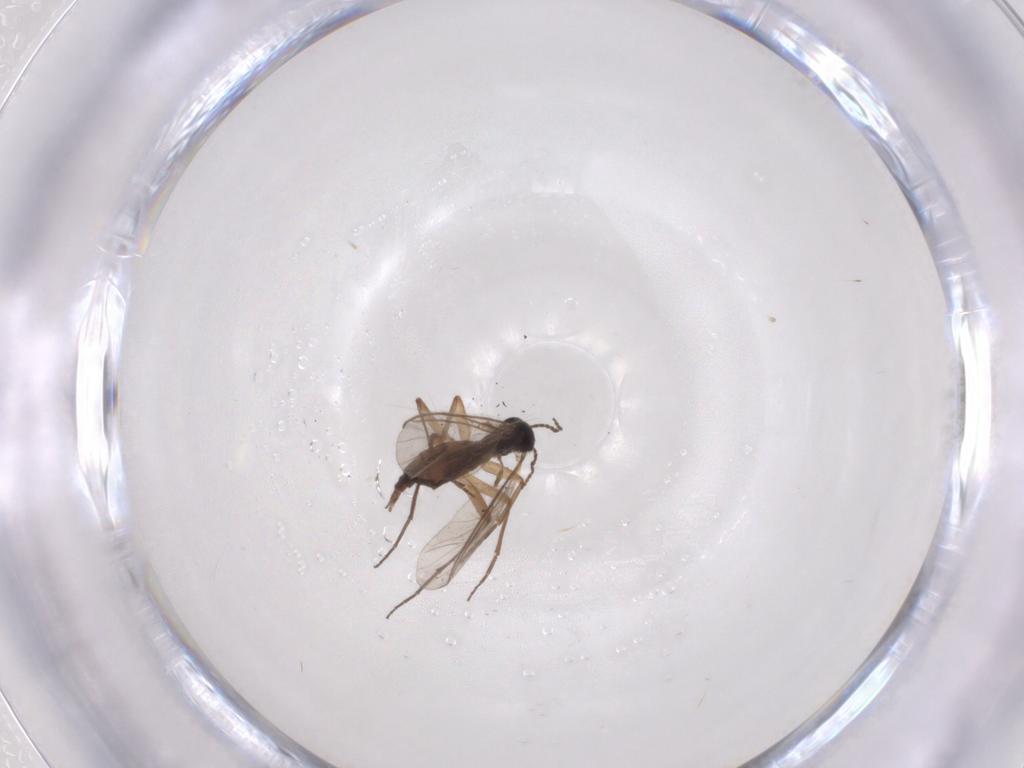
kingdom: Animalia
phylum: Arthropoda
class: Insecta
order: Diptera
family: Sciaridae
